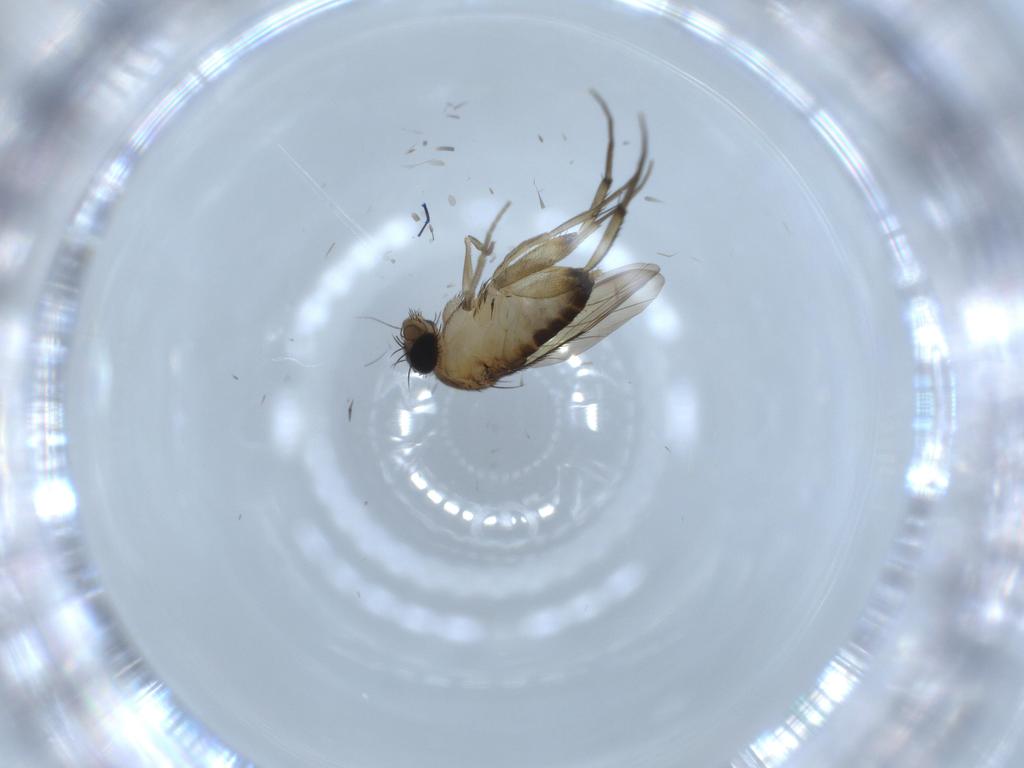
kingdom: Animalia
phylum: Arthropoda
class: Insecta
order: Diptera
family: Phoridae
